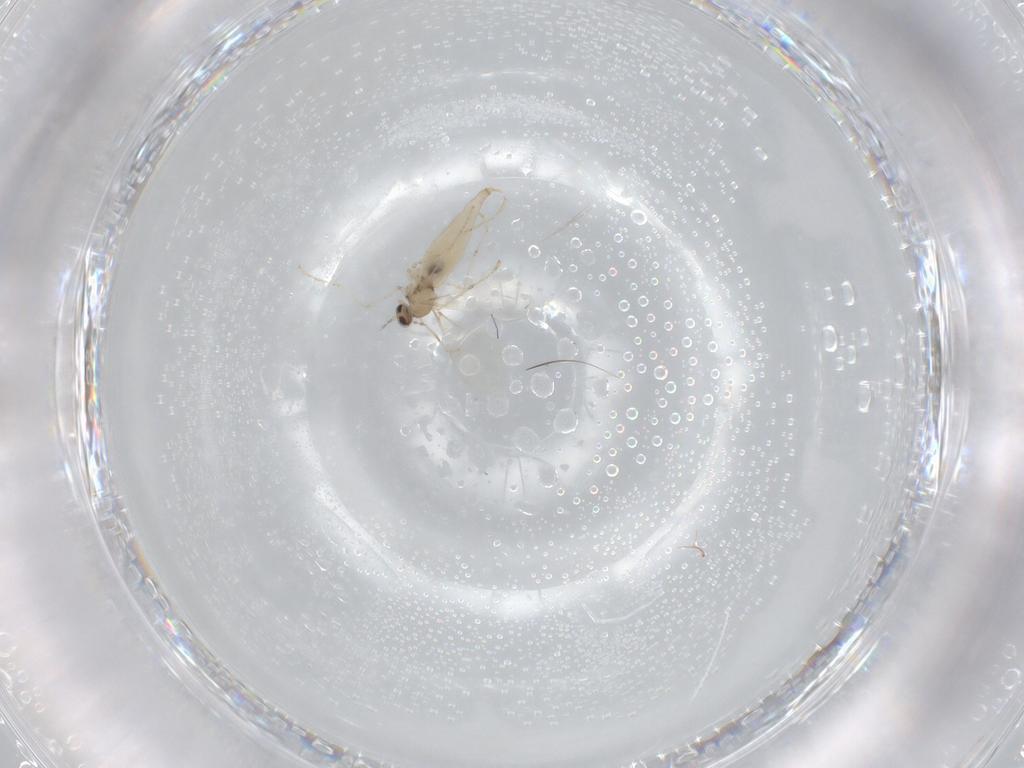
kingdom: Animalia
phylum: Arthropoda
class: Insecta
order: Diptera
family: Cecidomyiidae
